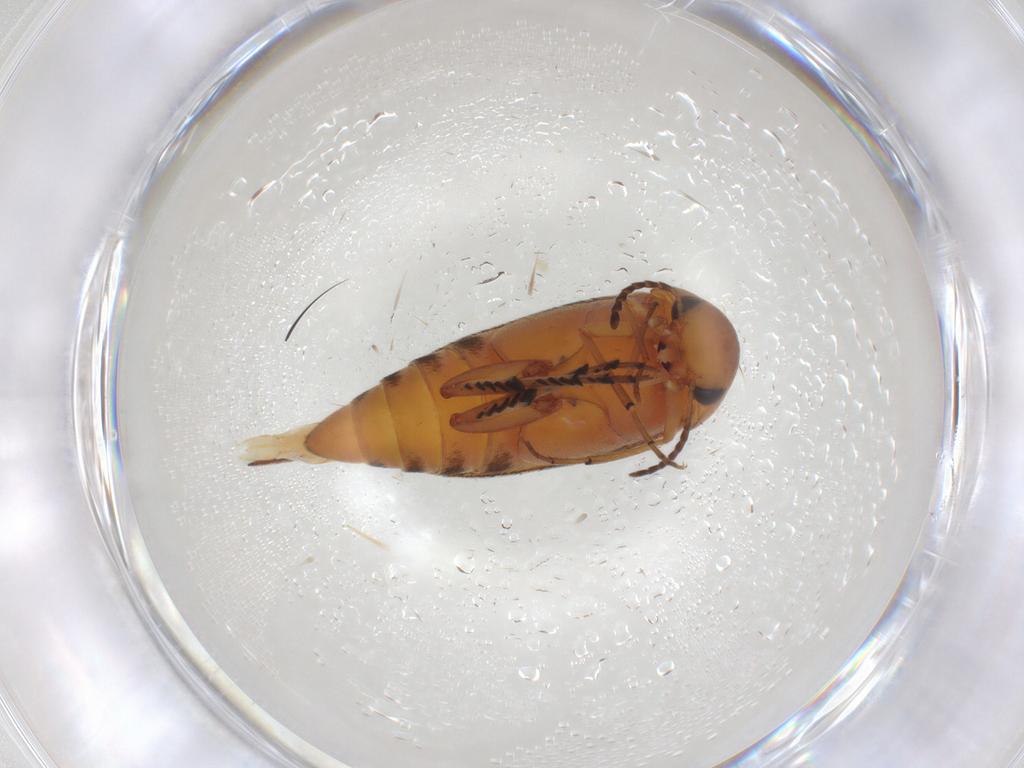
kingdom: Animalia
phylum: Arthropoda
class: Insecta
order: Coleoptera
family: Mordellidae
